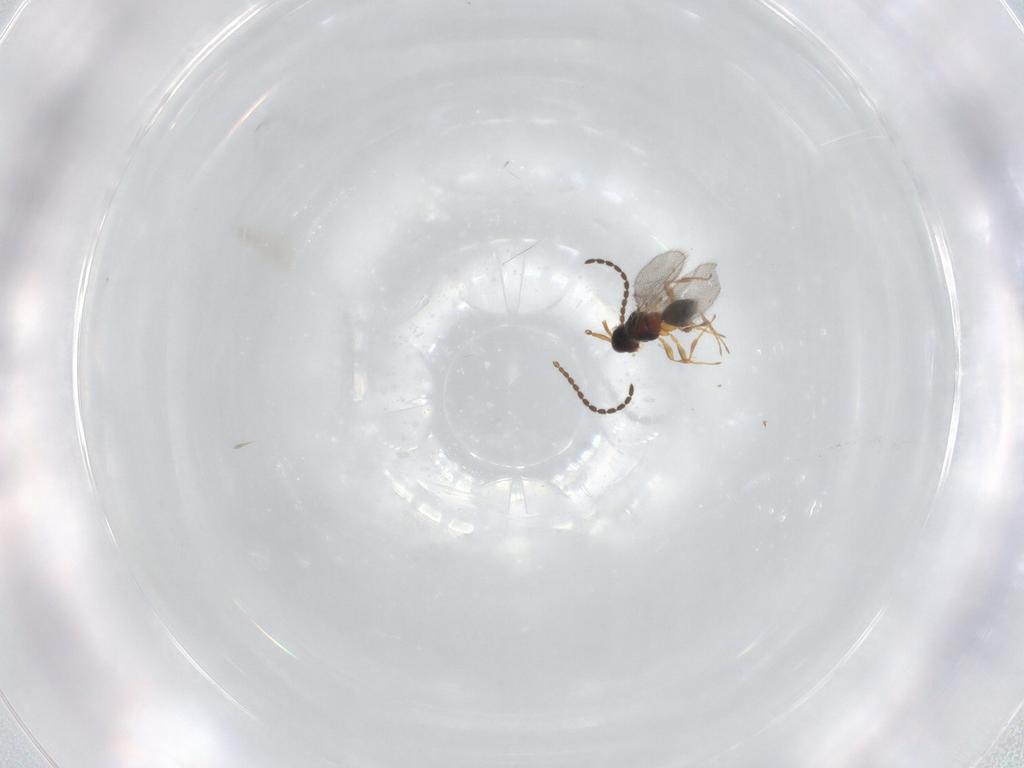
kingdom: Animalia
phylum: Arthropoda
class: Insecta
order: Hymenoptera
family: Diapriidae
